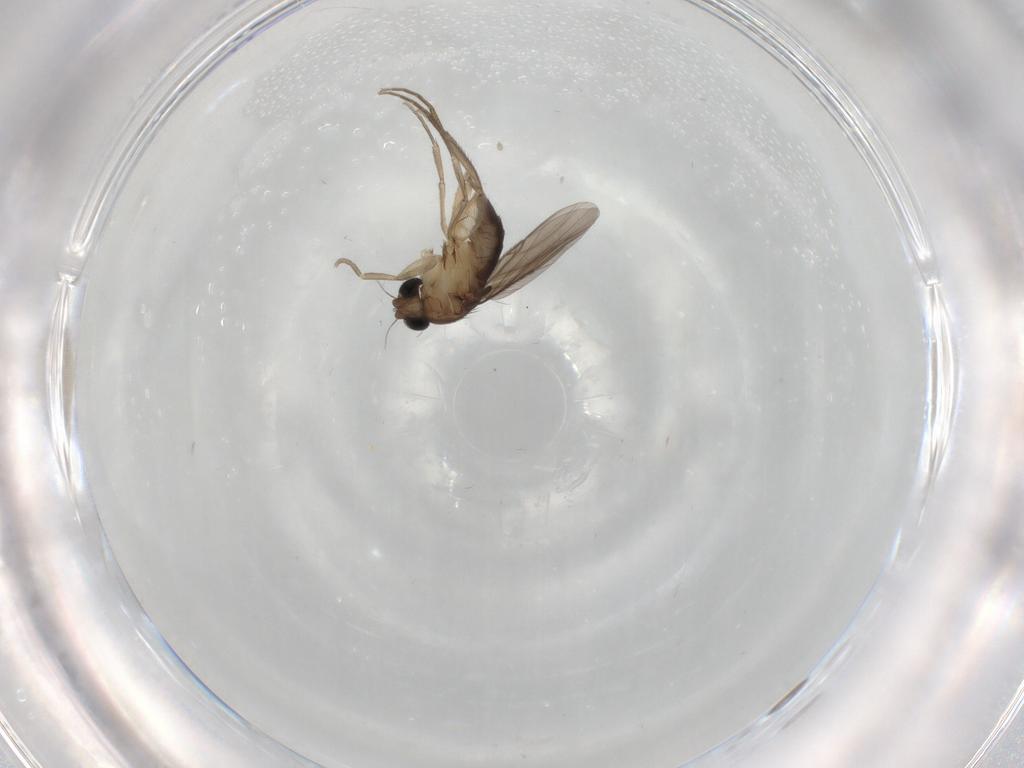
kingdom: Animalia
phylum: Arthropoda
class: Insecta
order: Diptera
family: Phoridae
